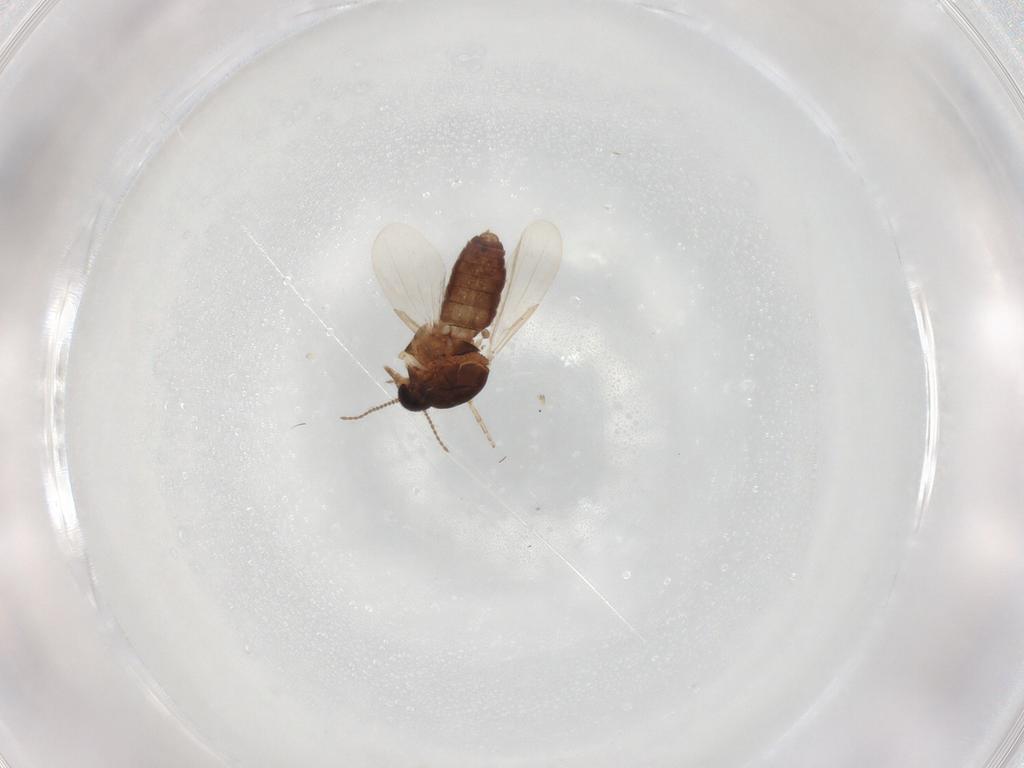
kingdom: Animalia
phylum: Arthropoda
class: Insecta
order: Diptera
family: Ceratopogonidae
